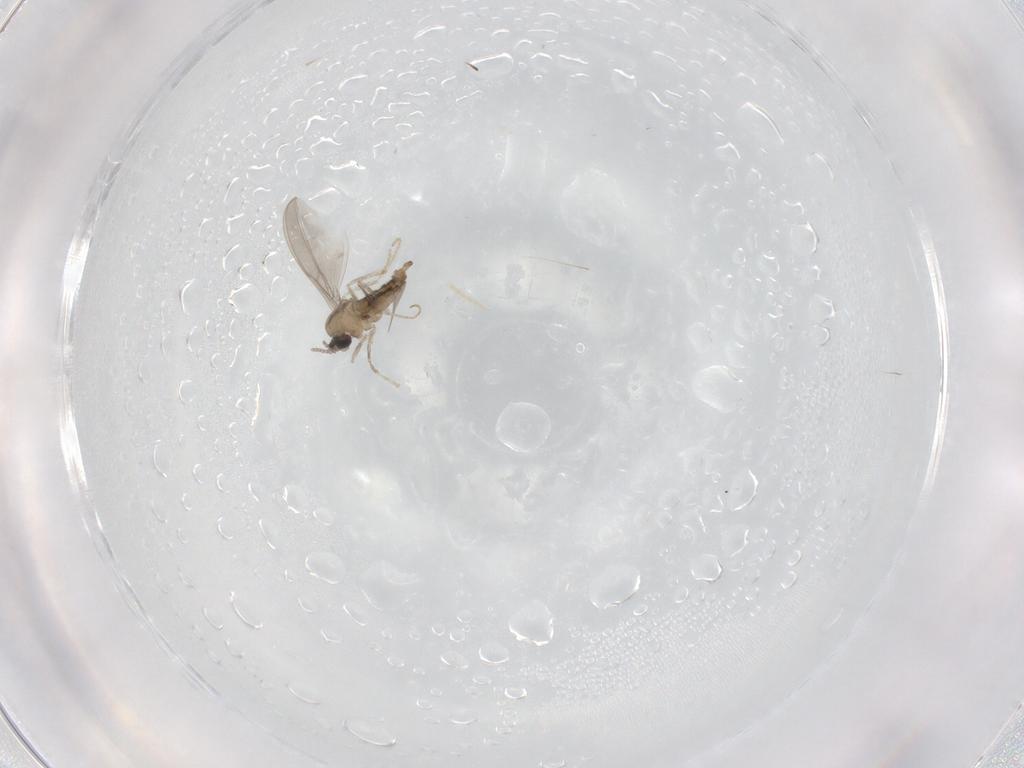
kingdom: Animalia
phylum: Arthropoda
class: Insecta
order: Diptera
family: Cecidomyiidae
